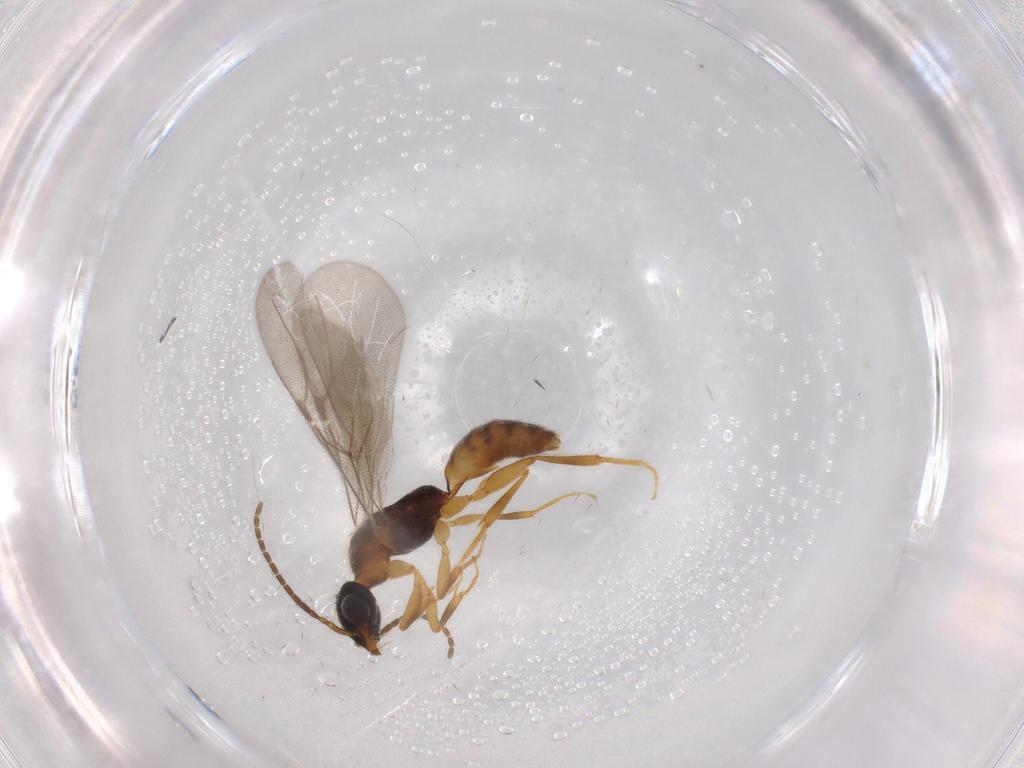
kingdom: Animalia
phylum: Arthropoda
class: Insecta
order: Hymenoptera
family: Bethylidae
